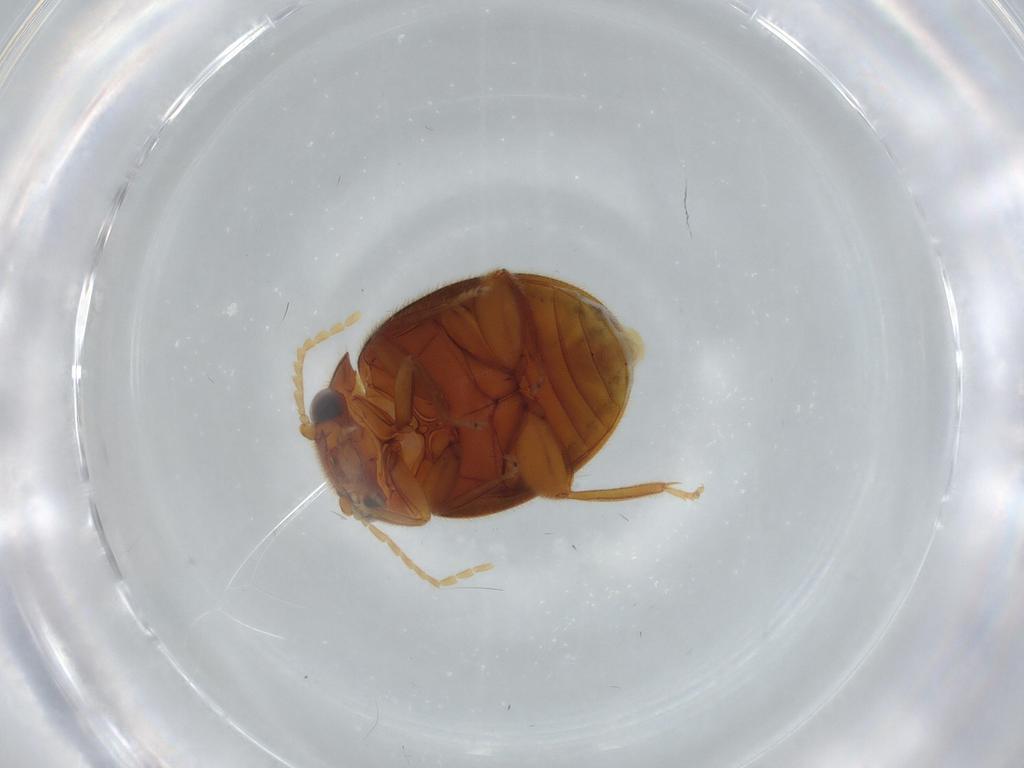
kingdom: Animalia
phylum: Arthropoda
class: Insecta
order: Coleoptera
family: Scirtidae
